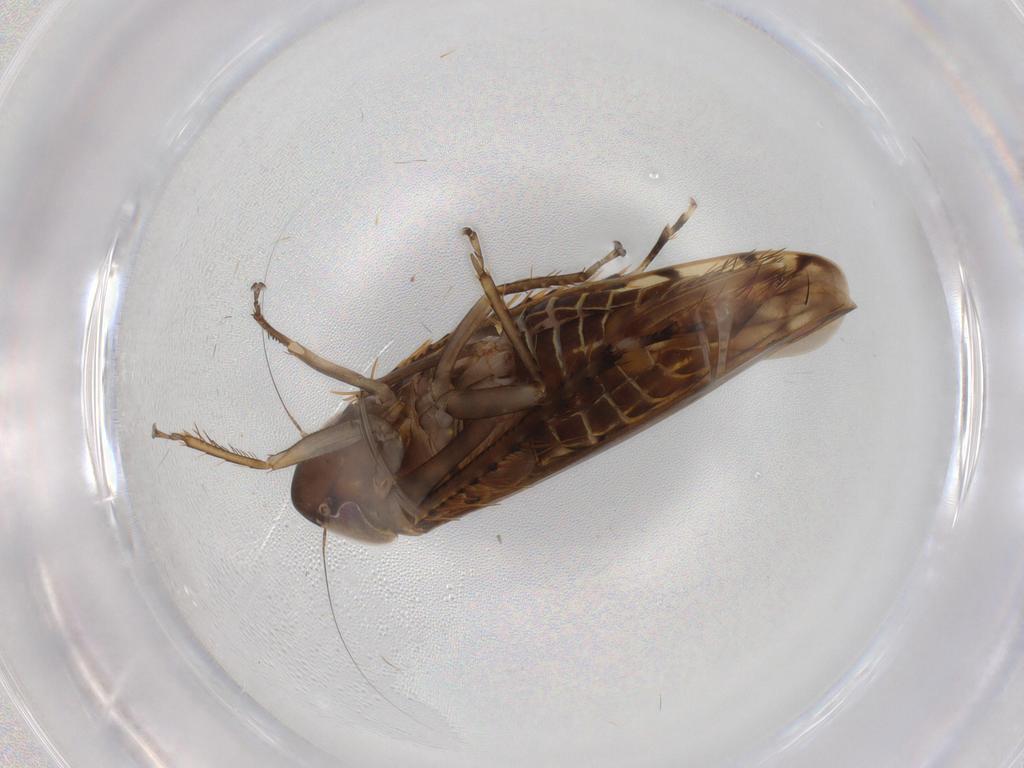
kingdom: Animalia
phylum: Arthropoda
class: Insecta
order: Hemiptera
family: Cicadellidae
